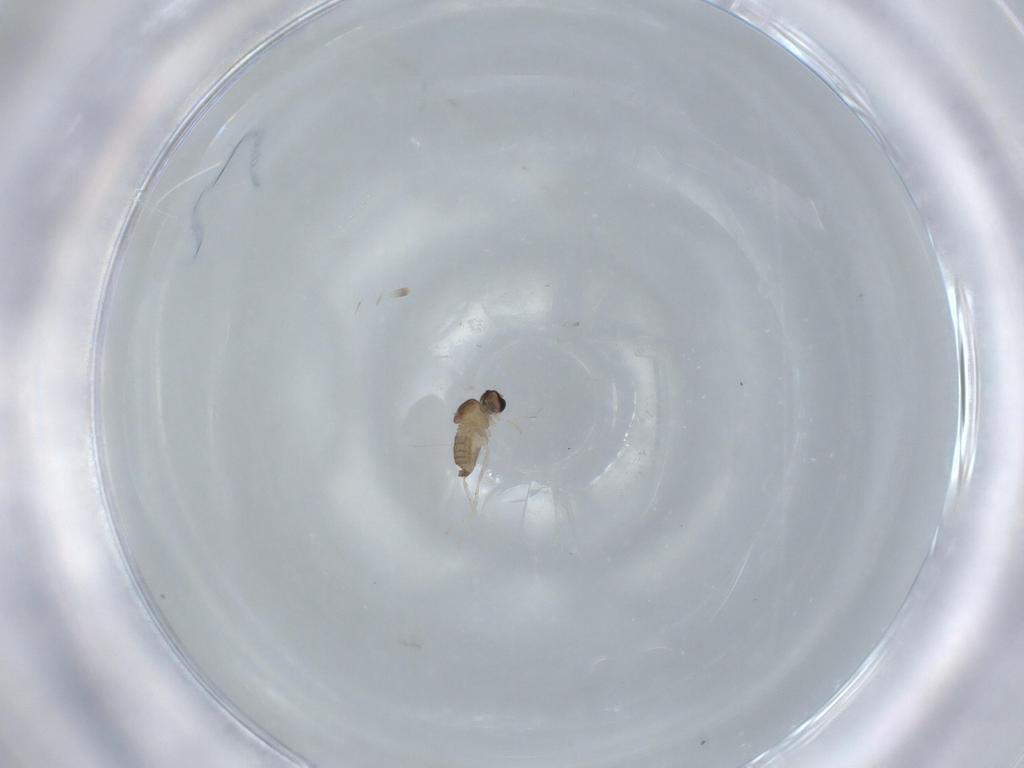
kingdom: Animalia
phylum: Arthropoda
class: Insecta
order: Diptera
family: Cecidomyiidae
